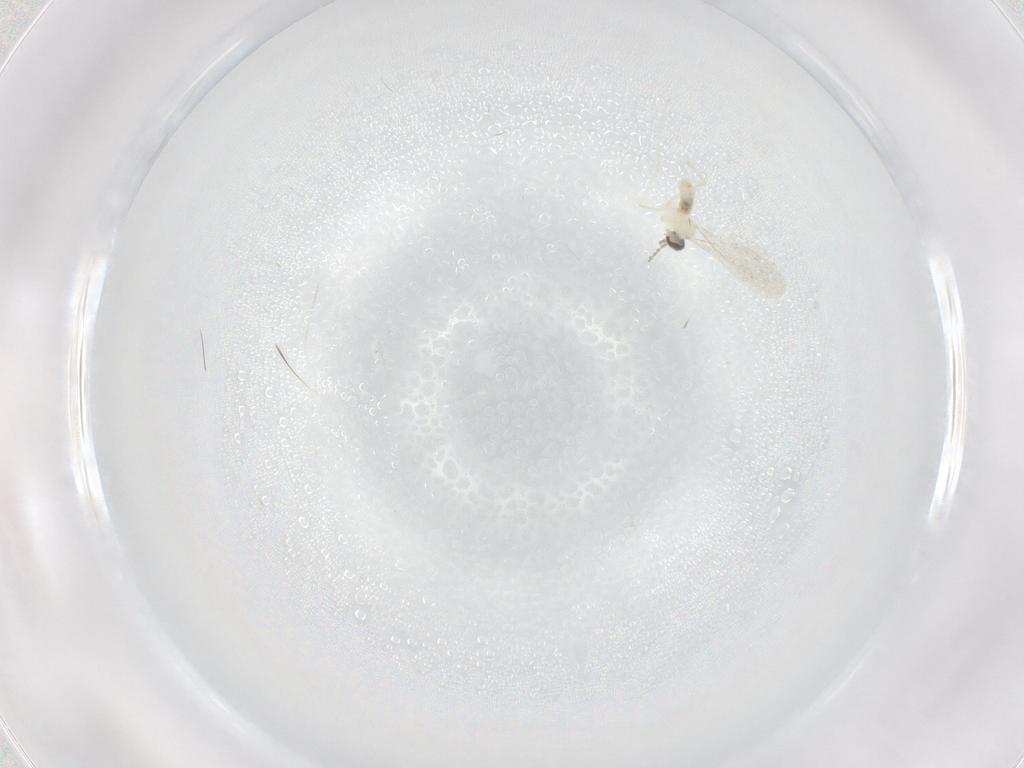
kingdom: Animalia
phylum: Arthropoda
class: Insecta
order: Diptera
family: Cecidomyiidae
